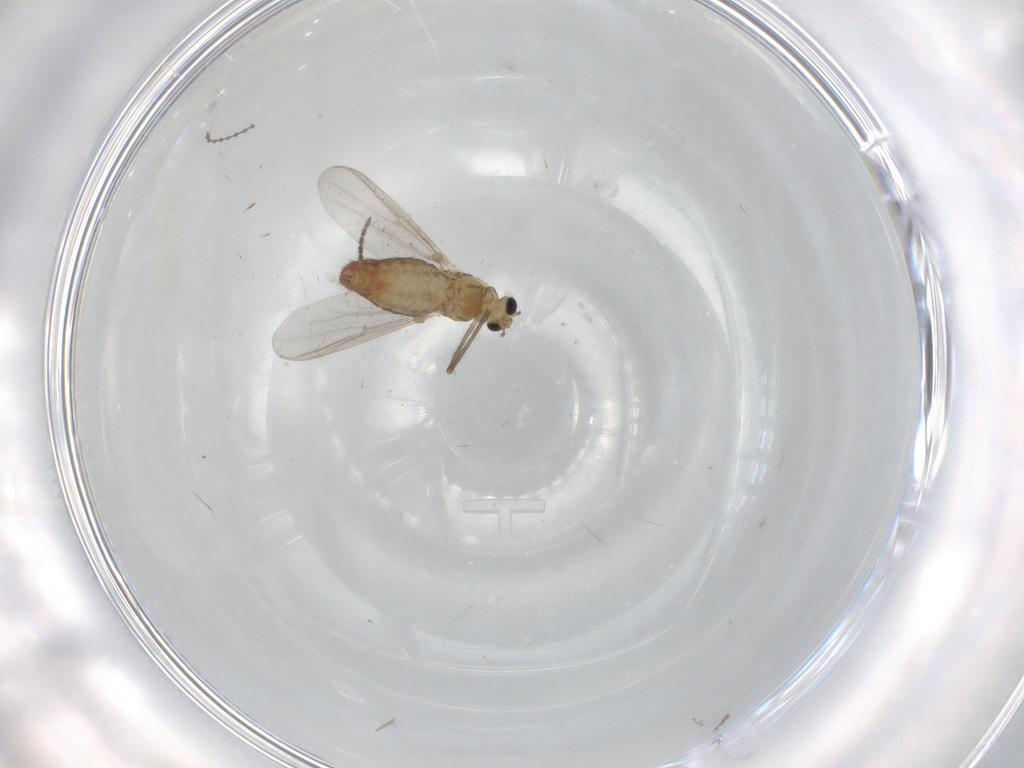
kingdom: Animalia
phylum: Arthropoda
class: Insecta
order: Diptera
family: Chironomidae
